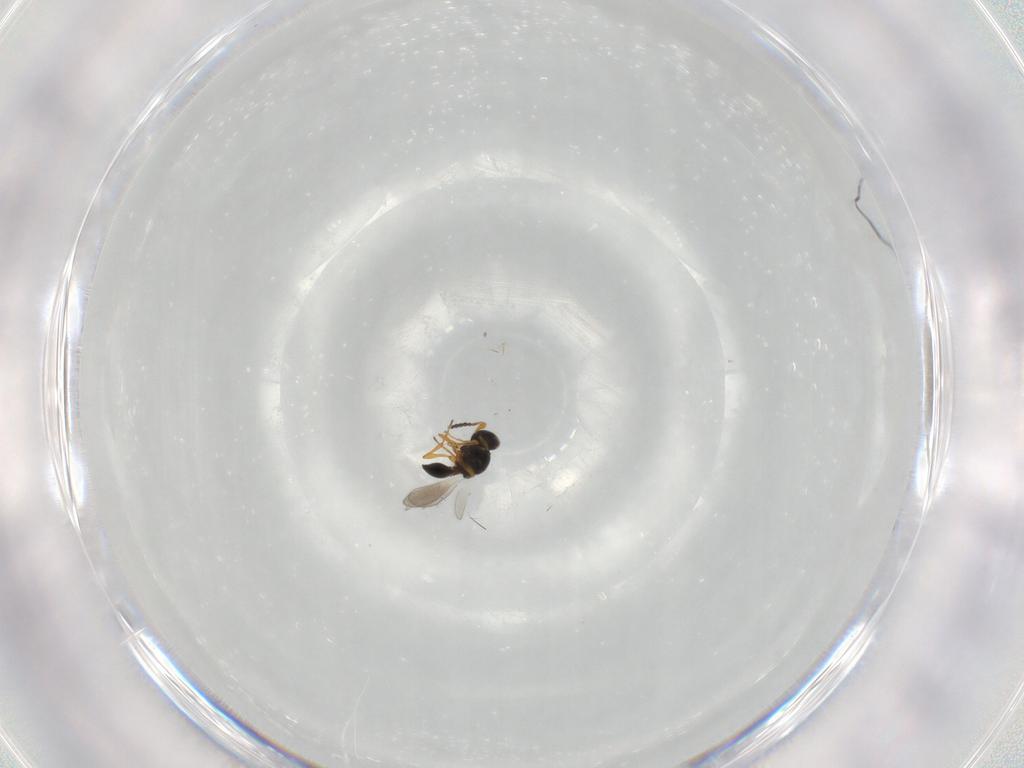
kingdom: Animalia
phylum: Arthropoda
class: Insecta
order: Hymenoptera
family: Platygastridae
